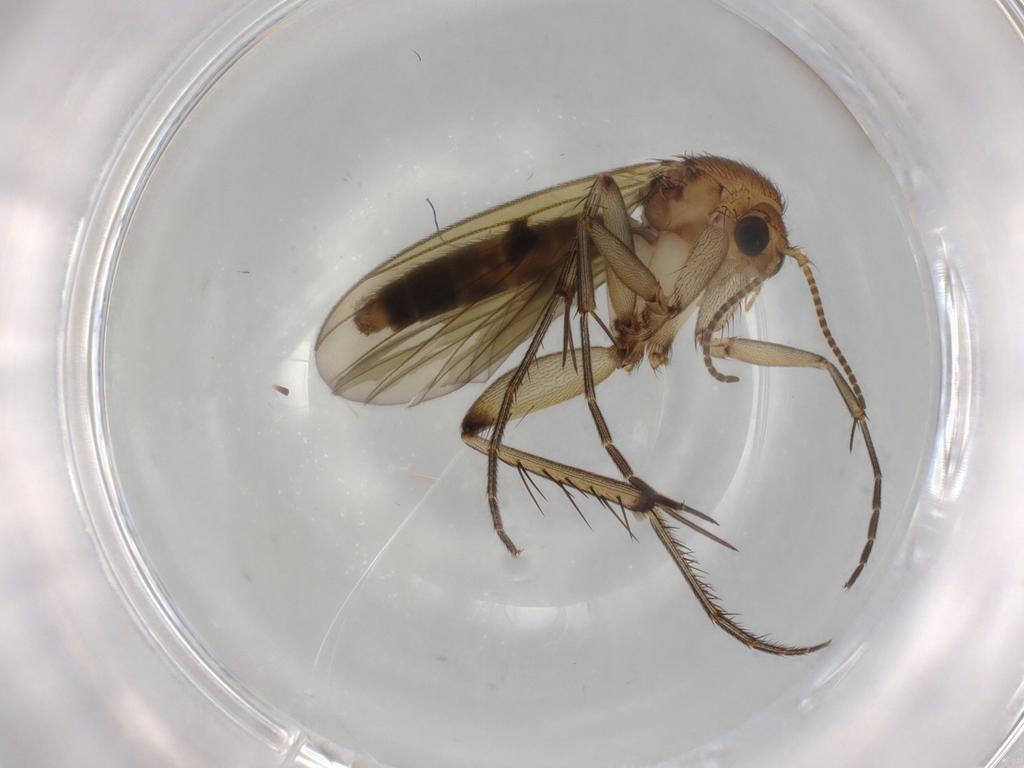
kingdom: Animalia
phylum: Arthropoda
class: Insecta
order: Diptera
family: Mycetophilidae
